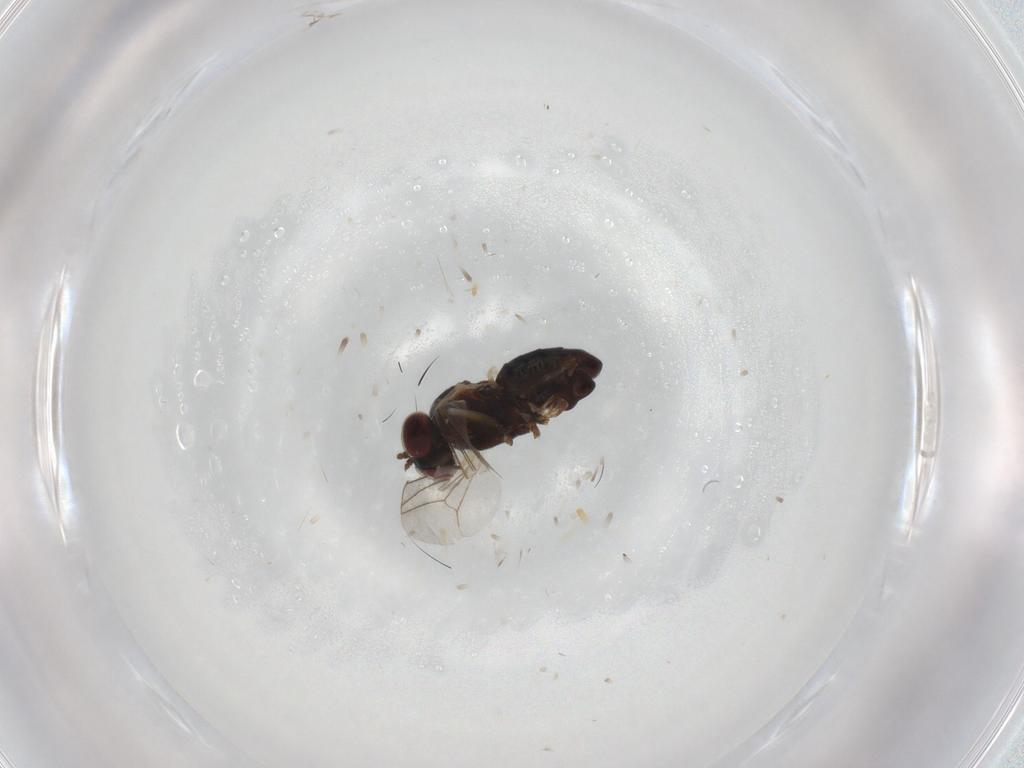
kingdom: Animalia
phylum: Arthropoda
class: Insecta
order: Diptera
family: Dolichopodidae
